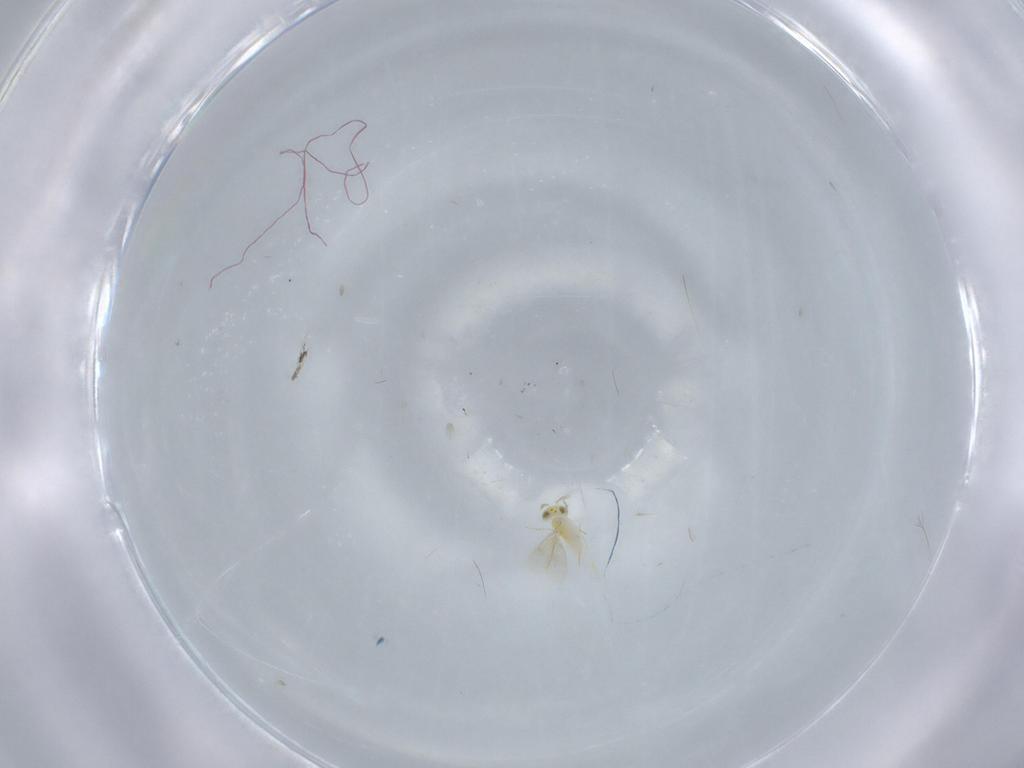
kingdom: Animalia
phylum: Arthropoda
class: Insecta
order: Hymenoptera
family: Aphelinidae
